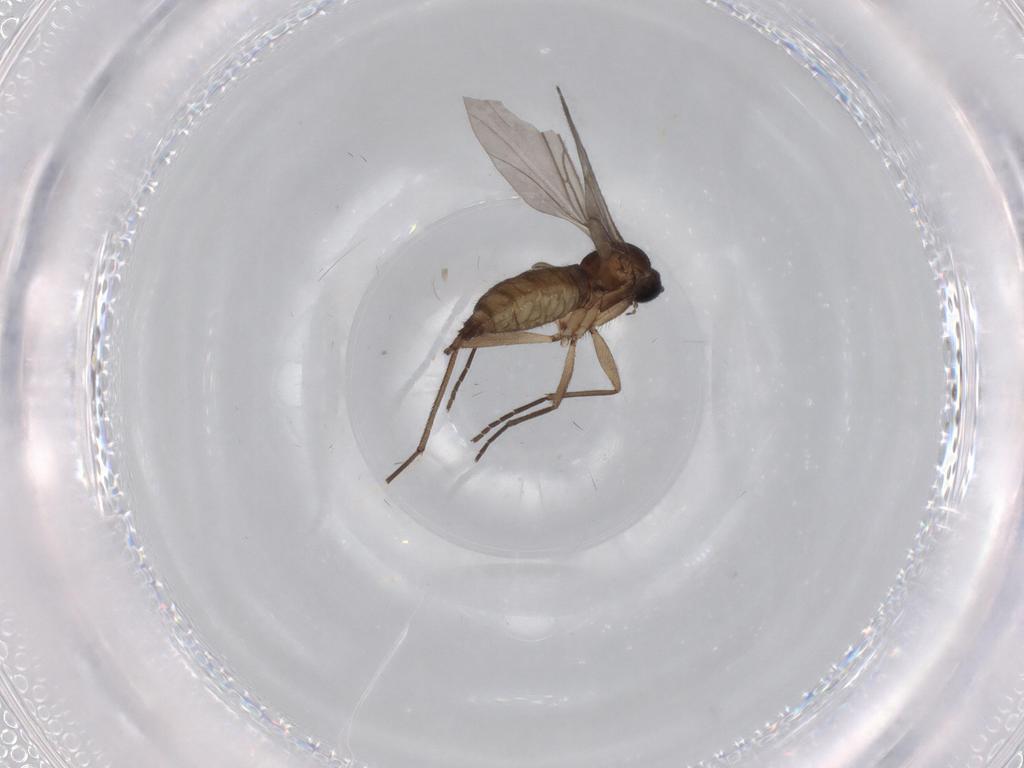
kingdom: Animalia
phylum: Arthropoda
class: Insecta
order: Diptera
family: Sciaridae
